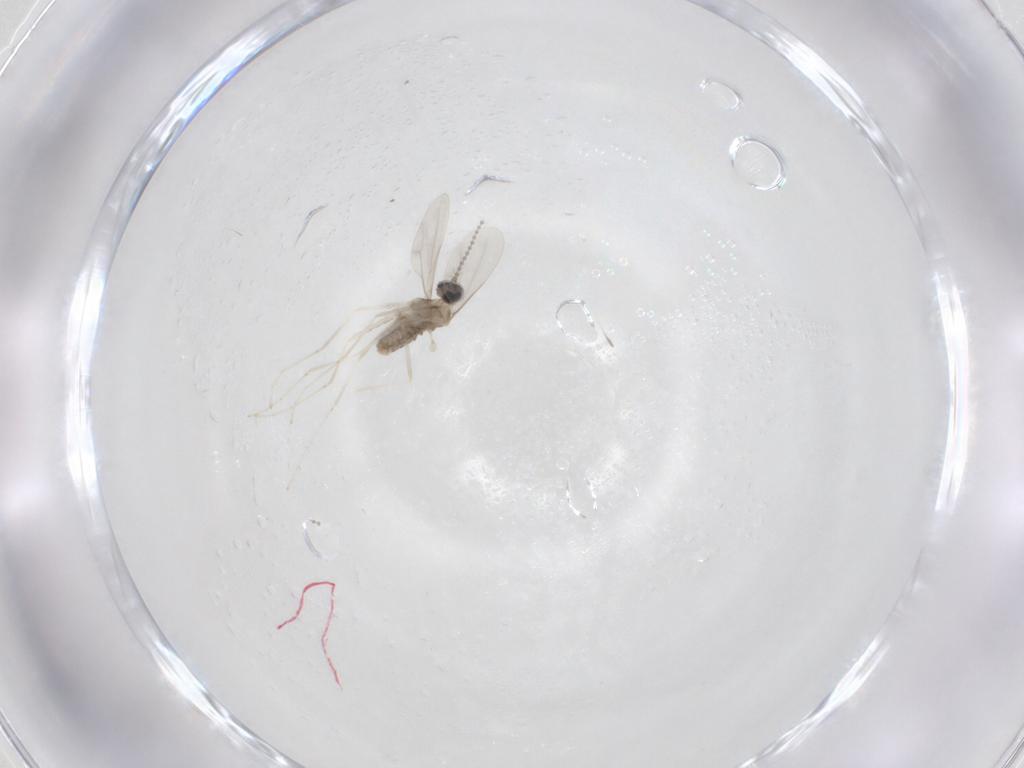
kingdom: Animalia
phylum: Arthropoda
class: Insecta
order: Diptera
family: Cecidomyiidae
